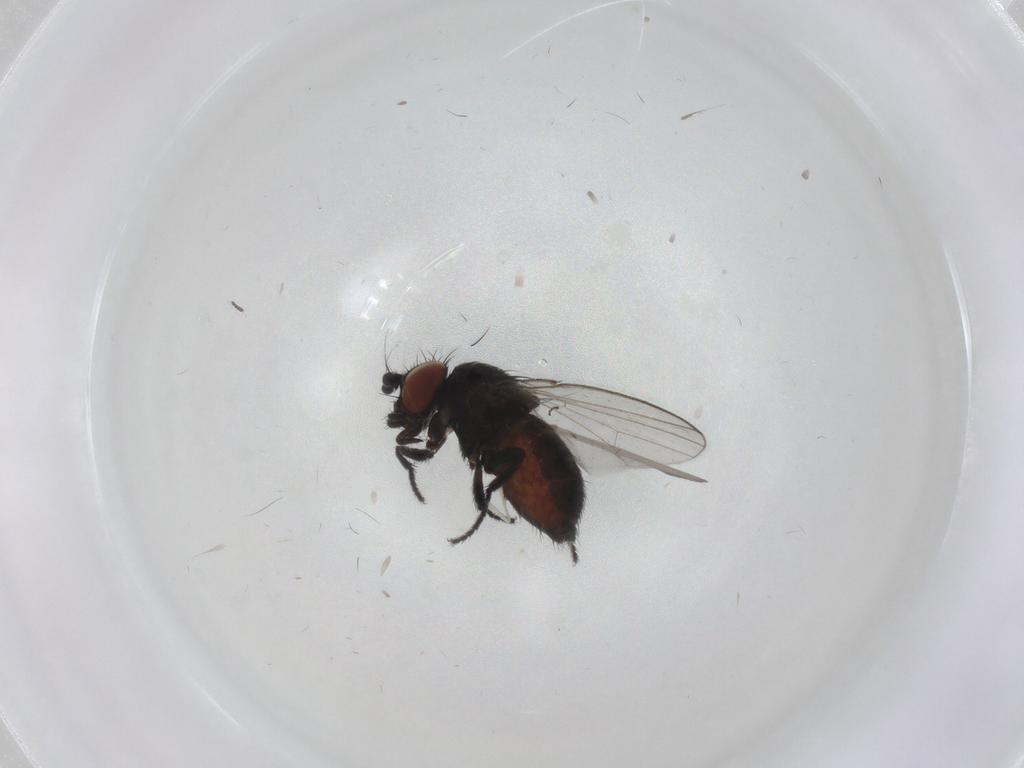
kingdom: Animalia
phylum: Arthropoda
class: Insecta
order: Diptera
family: Milichiidae
